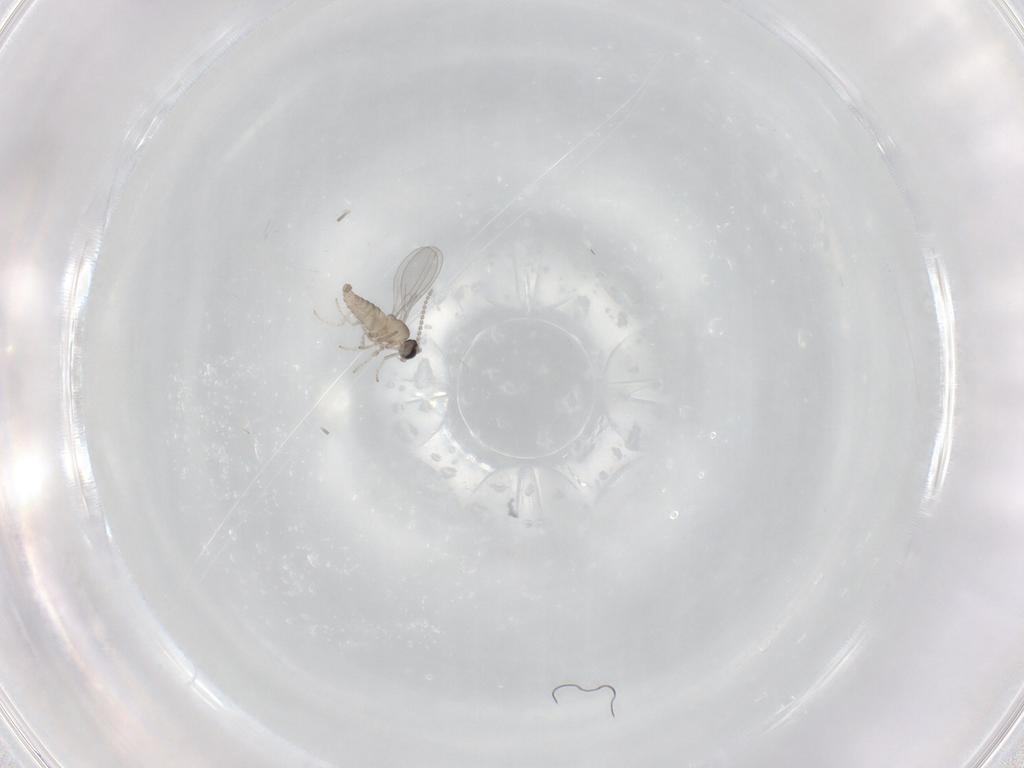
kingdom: Animalia
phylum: Arthropoda
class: Insecta
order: Diptera
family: Cecidomyiidae
